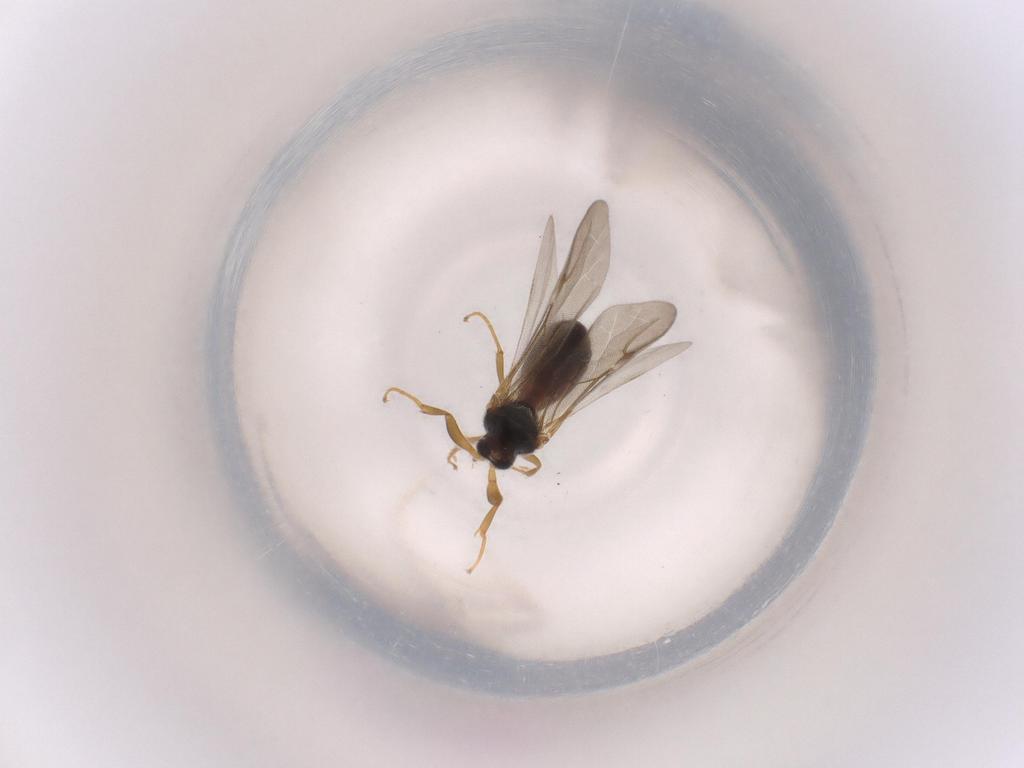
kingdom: Animalia
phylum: Arthropoda
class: Insecta
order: Hymenoptera
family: Bethylidae
